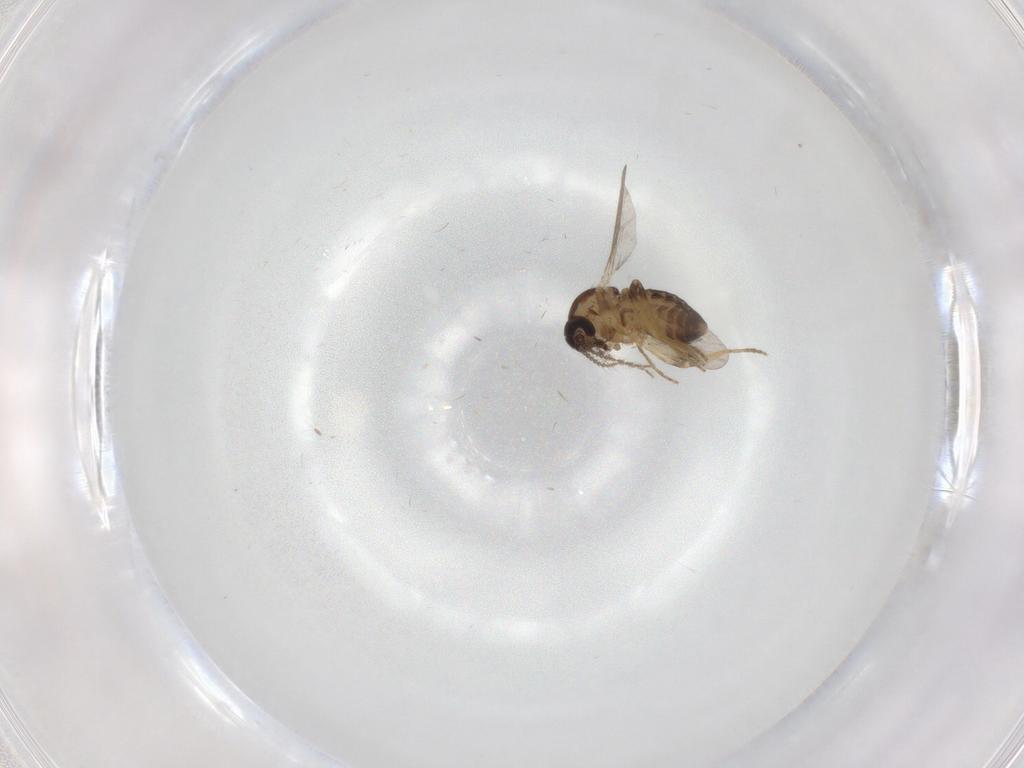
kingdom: Animalia
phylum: Arthropoda
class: Insecta
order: Diptera
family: Ceratopogonidae
